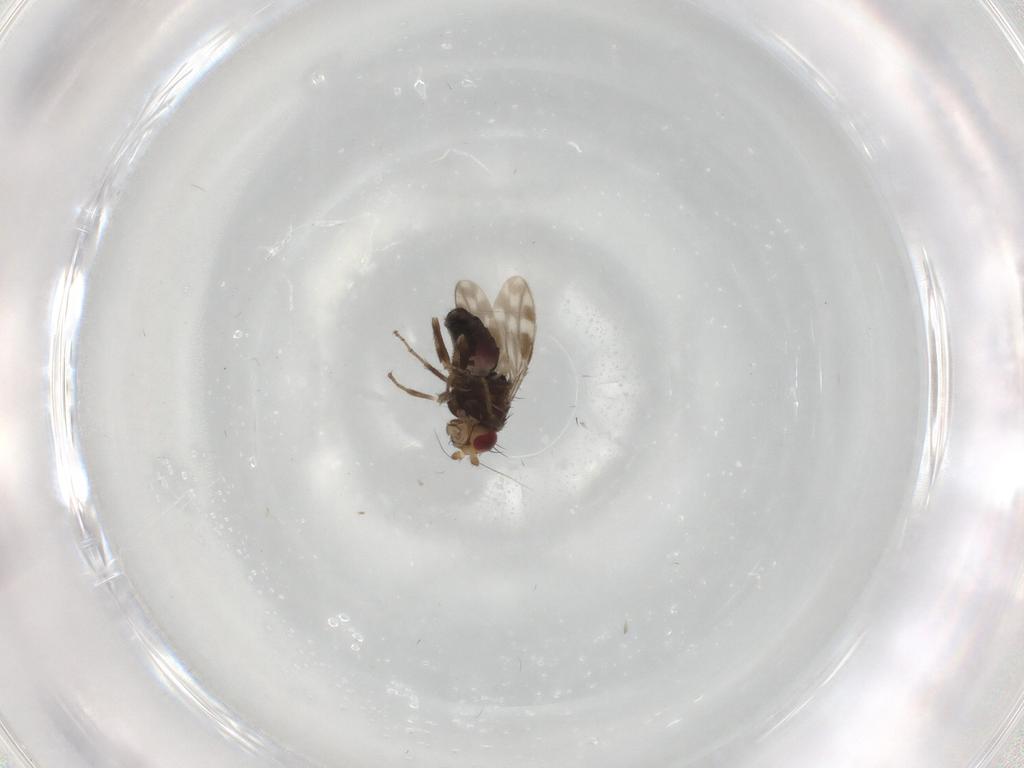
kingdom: Animalia
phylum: Arthropoda
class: Insecta
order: Diptera
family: Sphaeroceridae
